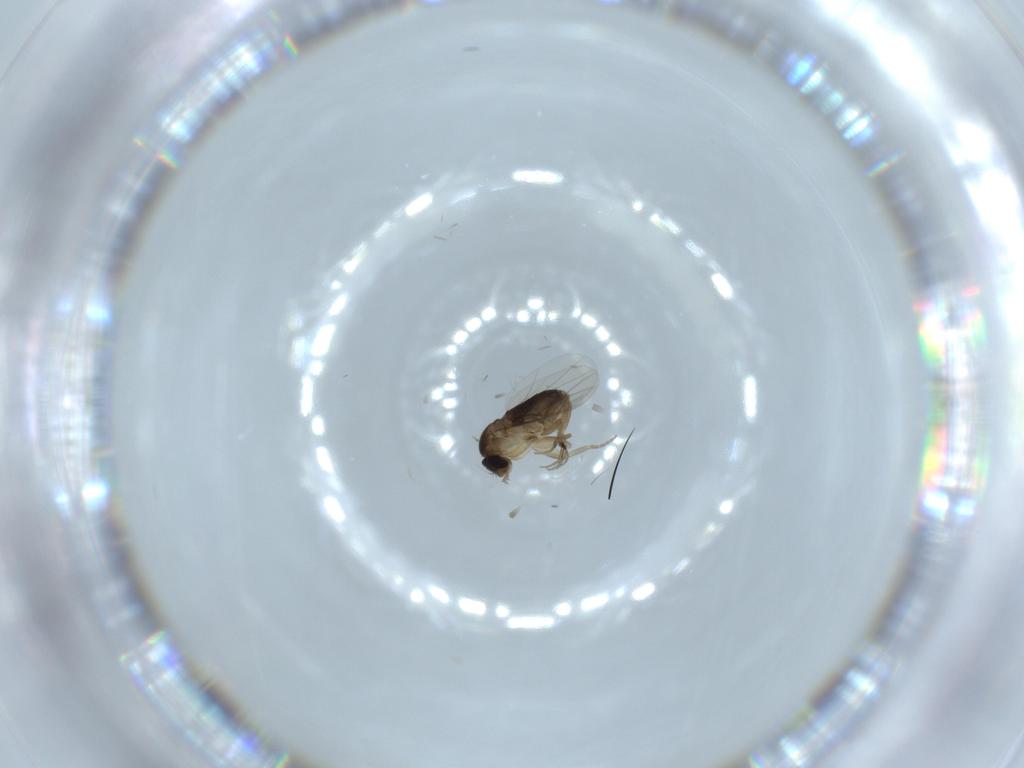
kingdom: Animalia
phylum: Arthropoda
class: Insecta
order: Diptera
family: Phoridae
